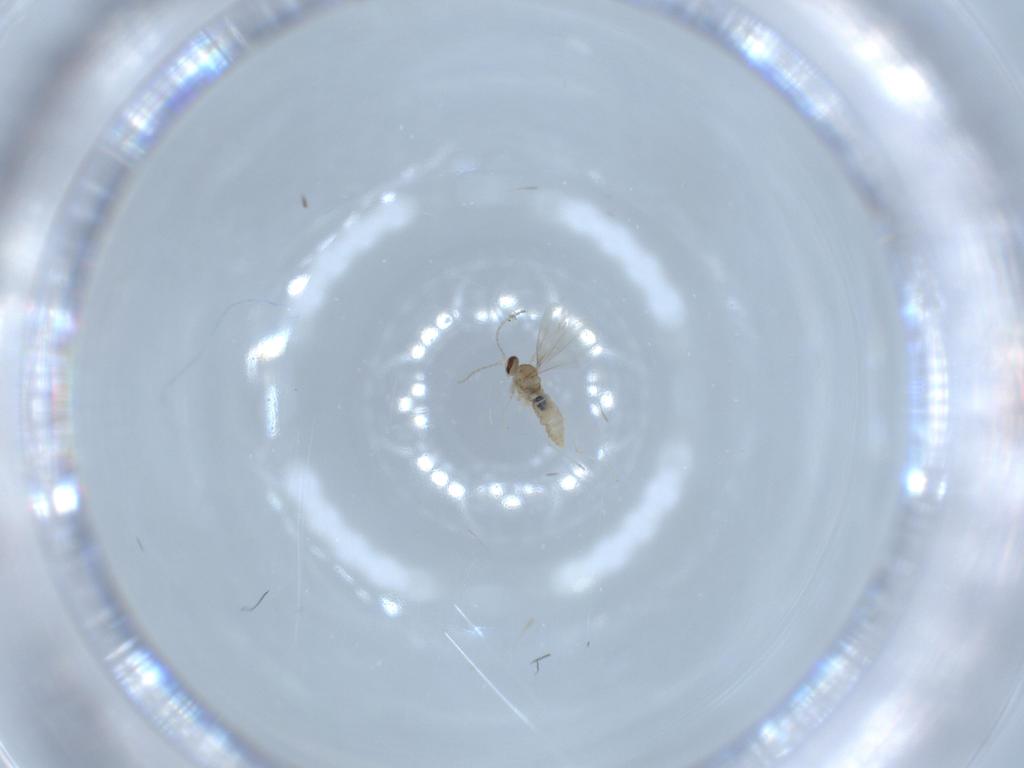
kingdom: Animalia
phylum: Arthropoda
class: Insecta
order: Diptera
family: Cecidomyiidae
